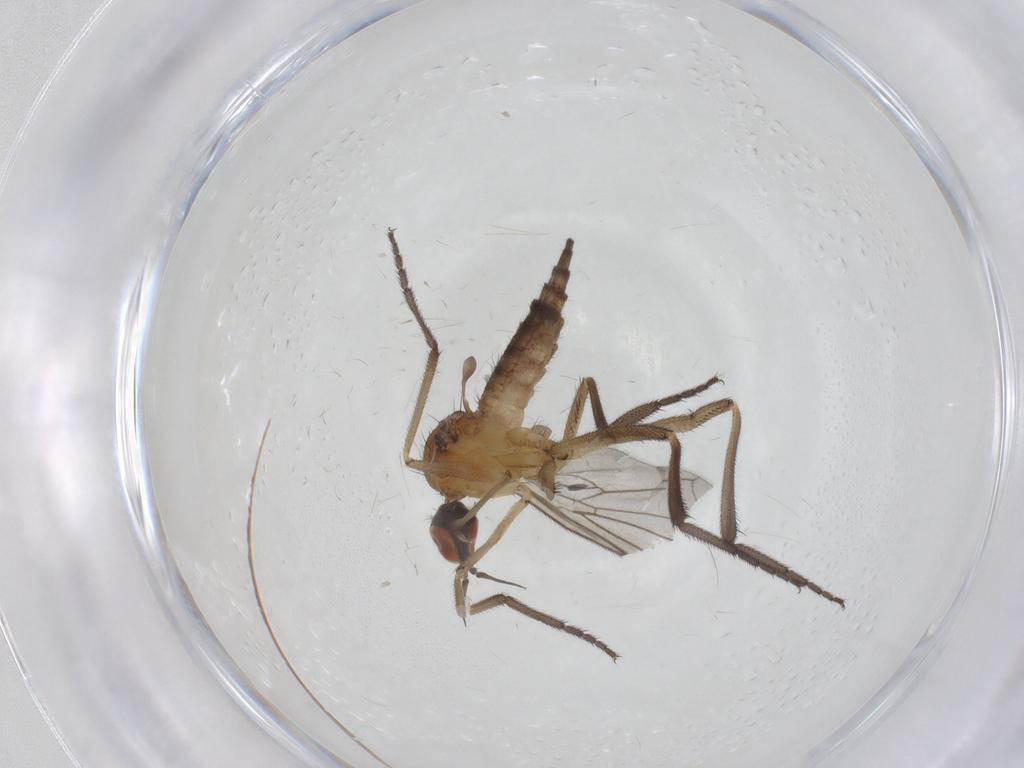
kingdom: Animalia
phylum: Arthropoda
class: Insecta
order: Diptera
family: Empididae
